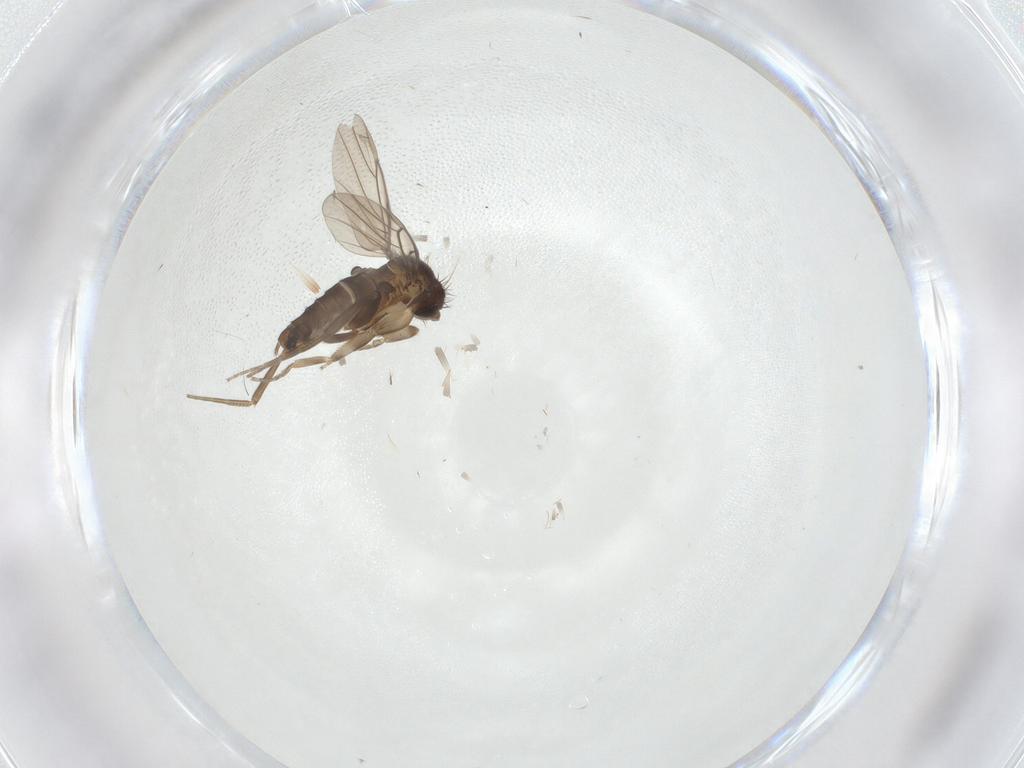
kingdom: Animalia
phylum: Arthropoda
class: Insecta
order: Diptera
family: Phoridae
